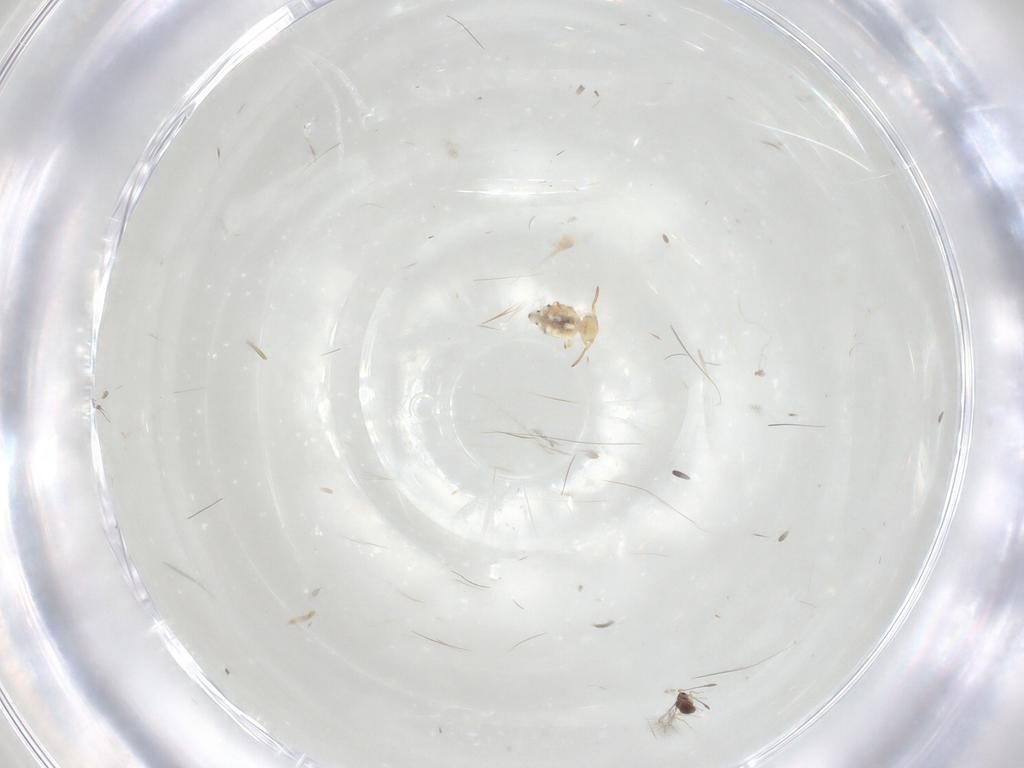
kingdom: Animalia
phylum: Arthropoda
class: Collembola
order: Symphypleona
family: Bourletiellidae
